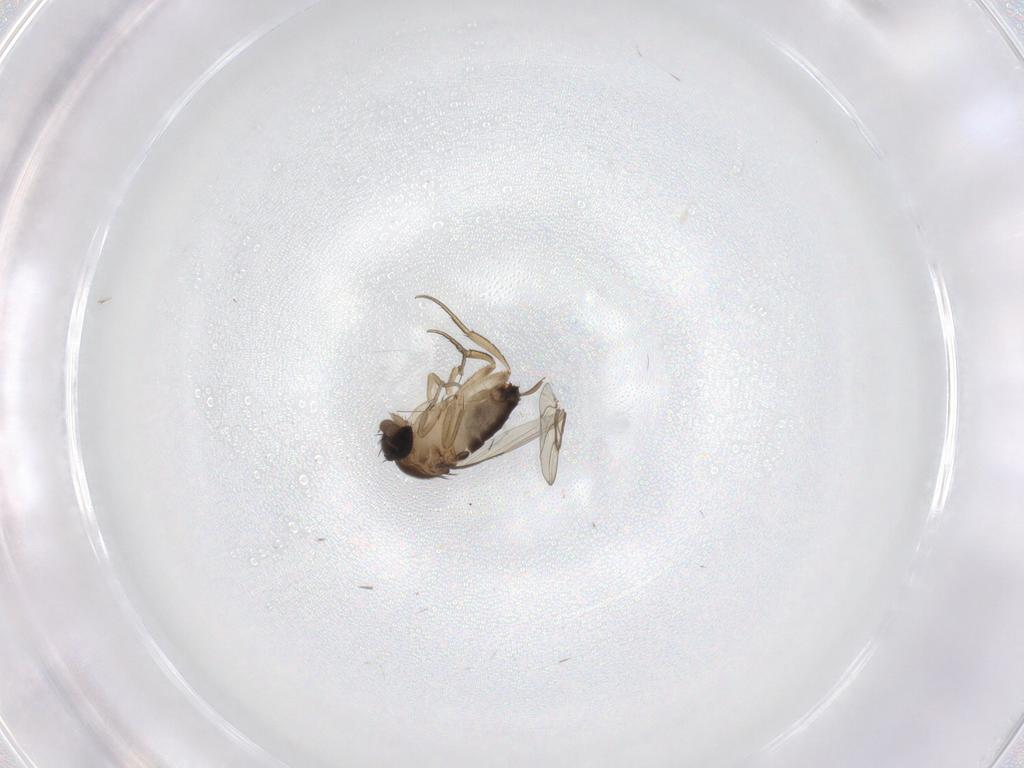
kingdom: Animalia
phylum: Arthropoda
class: Insecta
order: Diptera
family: Phoridae
